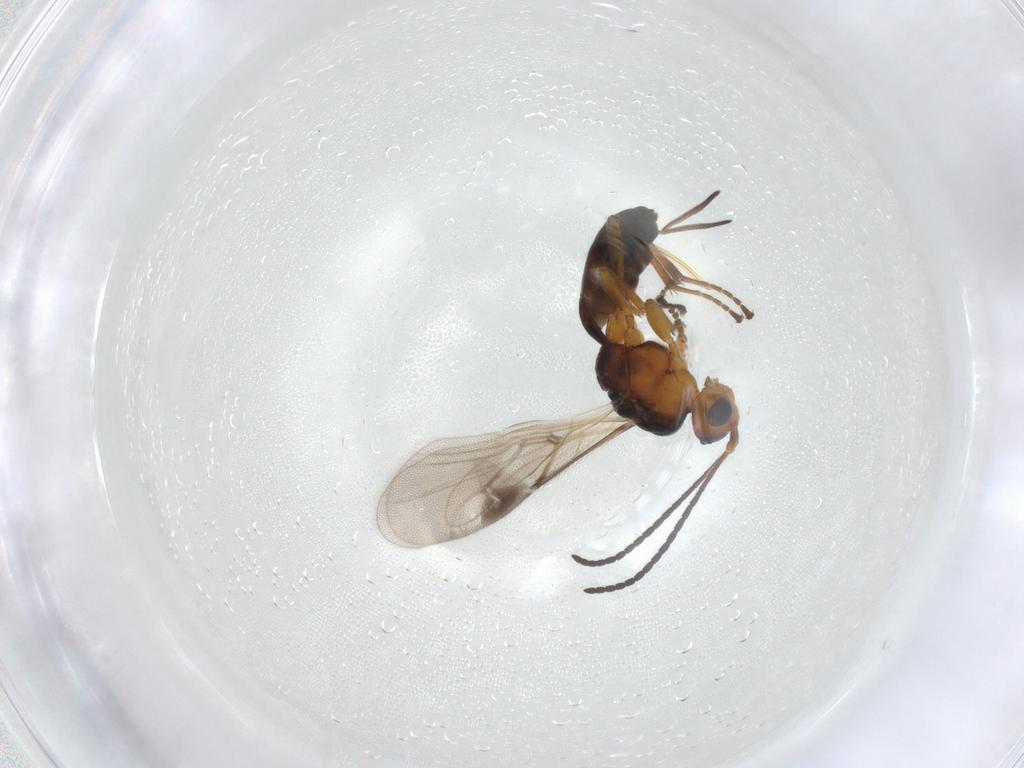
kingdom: Animalia
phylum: Arthropoda
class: Insecta
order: Hymenoptera
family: Braconidae
